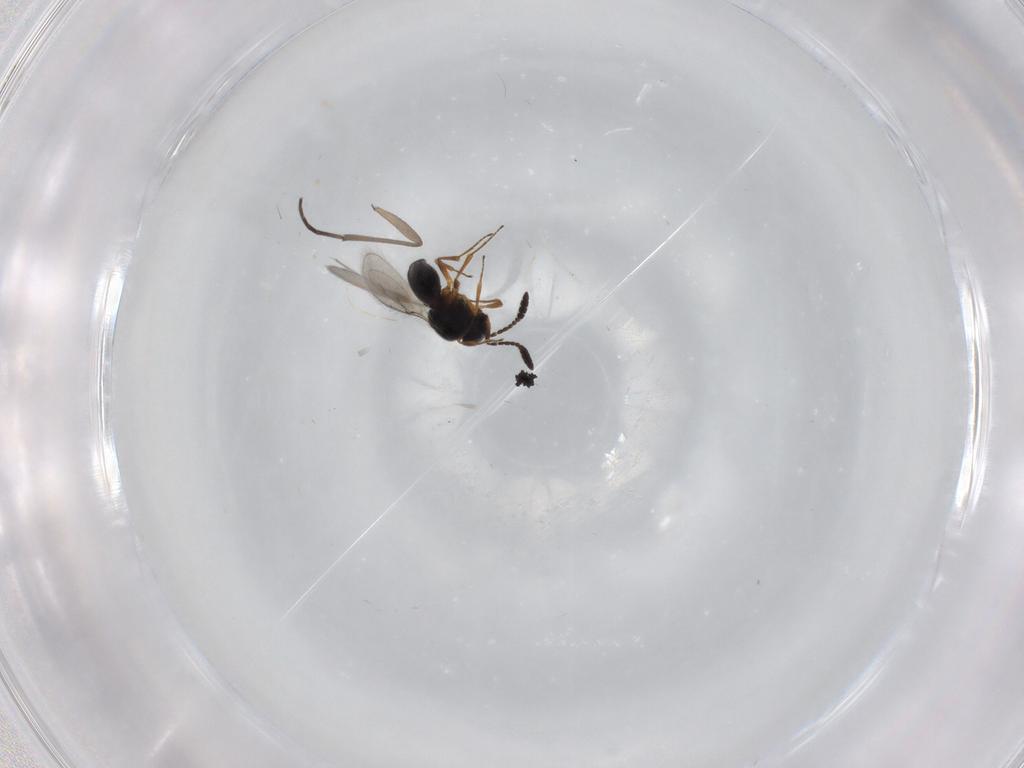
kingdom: Animalia
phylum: Arthropoda
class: Insecta
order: Hymenoptera
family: Scelionidae
